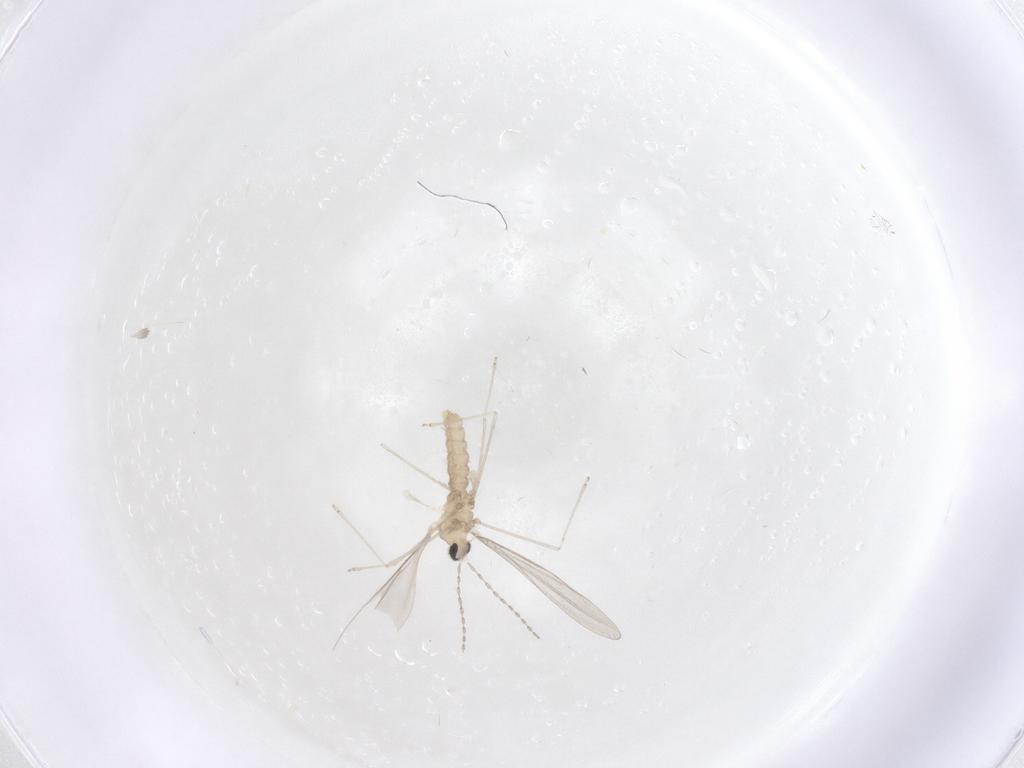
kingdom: Animalia
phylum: Arthropoda
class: Insecta
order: Diptera
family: Cecidomyiidae
